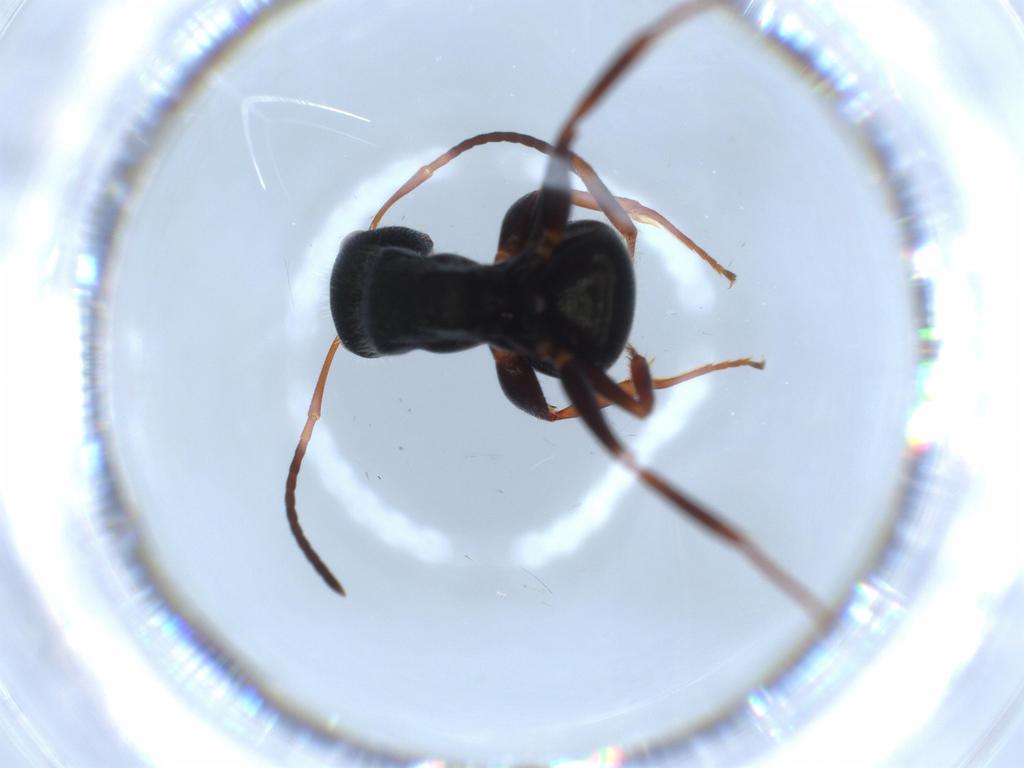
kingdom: Animalia
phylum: Arthropoda
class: Insecta
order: Hymenoptera
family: Formicidae
